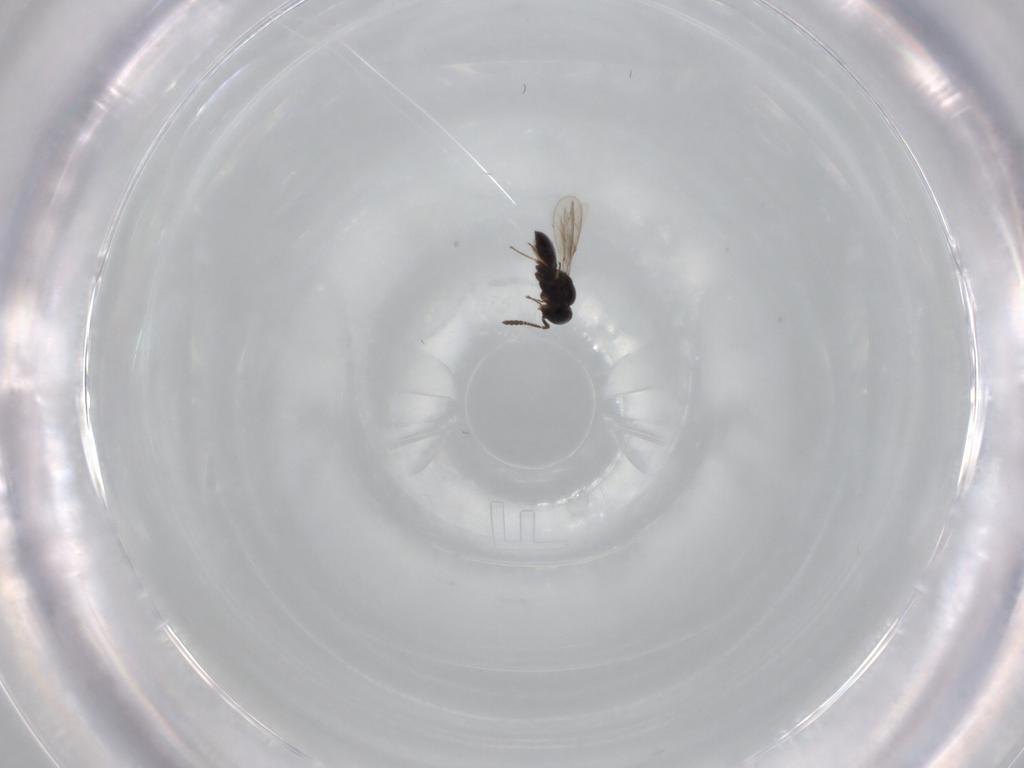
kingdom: Animalia
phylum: Arthropoda
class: Insecta
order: Hymenoptera
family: Scelionidae
